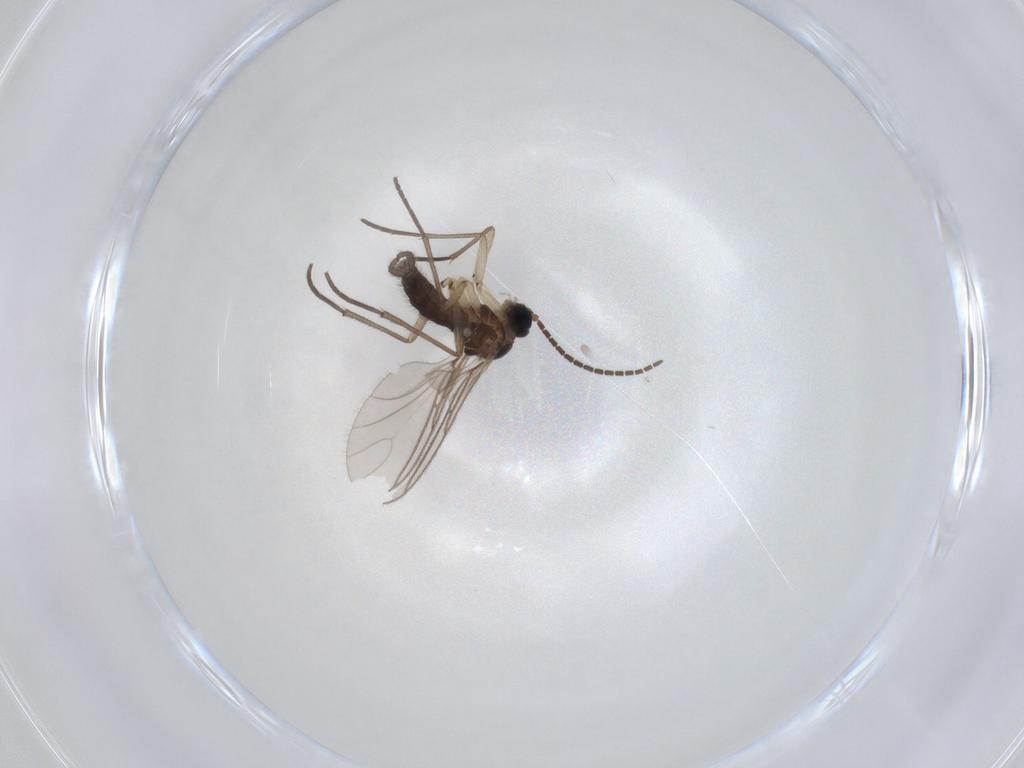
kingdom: Animalia
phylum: Arthropoda
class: Insecta
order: Diptera
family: Sciaridae
